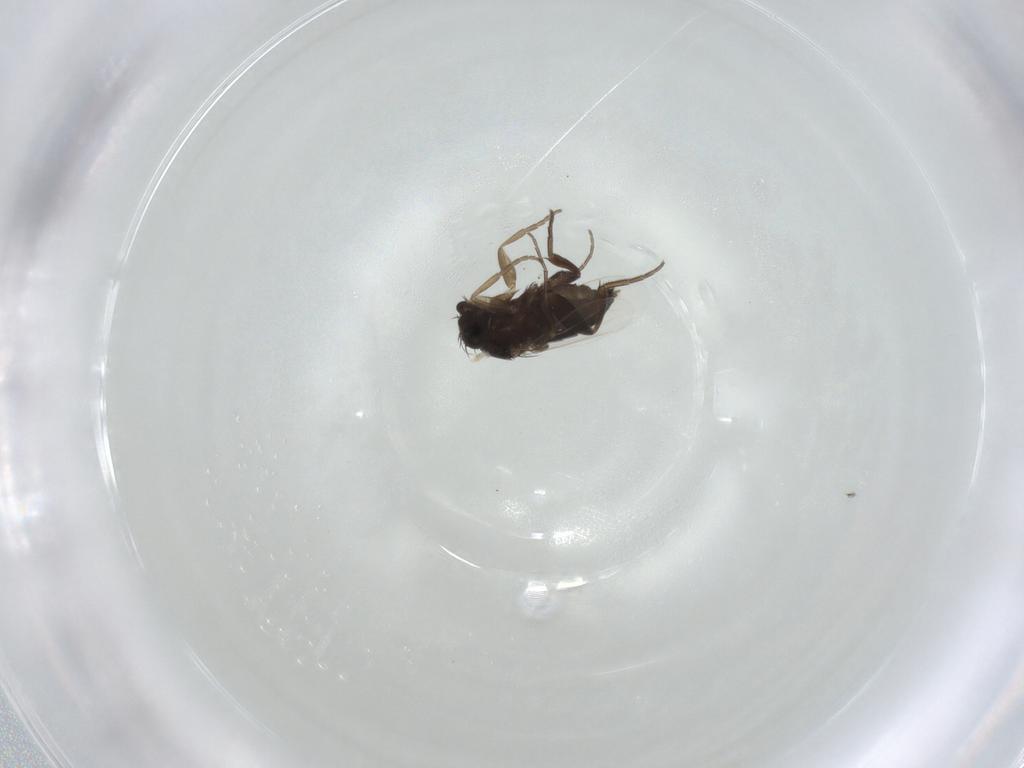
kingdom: Animalia
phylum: Arthropoda
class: Insecta
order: Diptera
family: Phoridae
